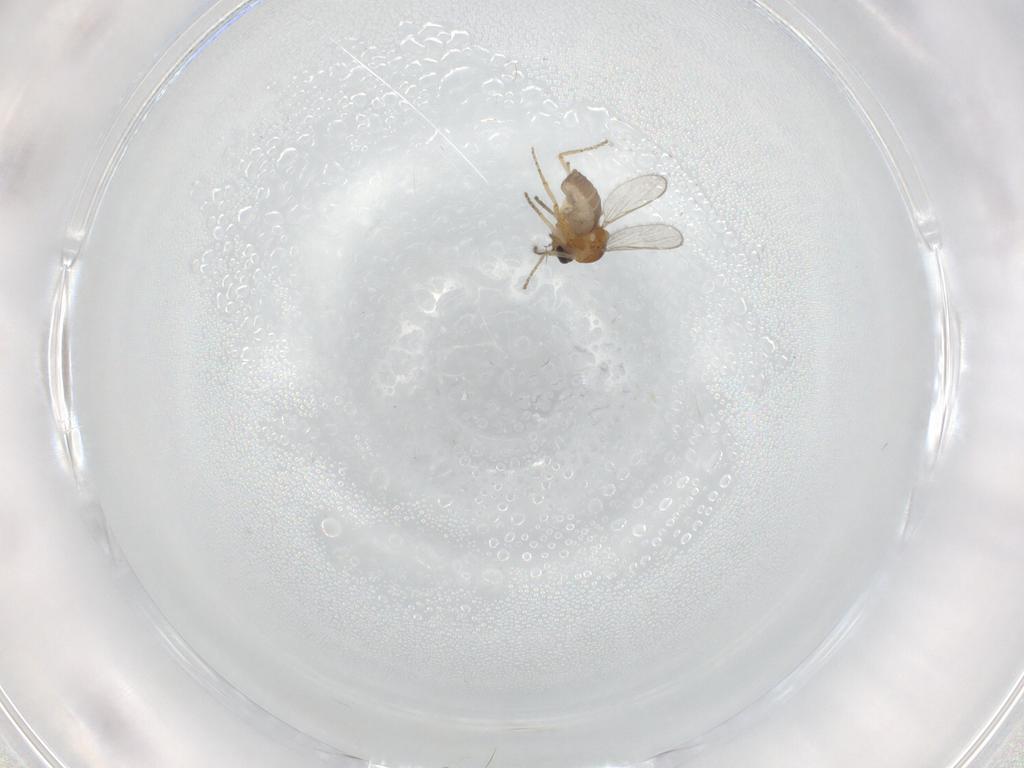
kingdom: Animalia
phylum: Arthropoda
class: Insecta
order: Diptera
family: Ceratopogonidae
